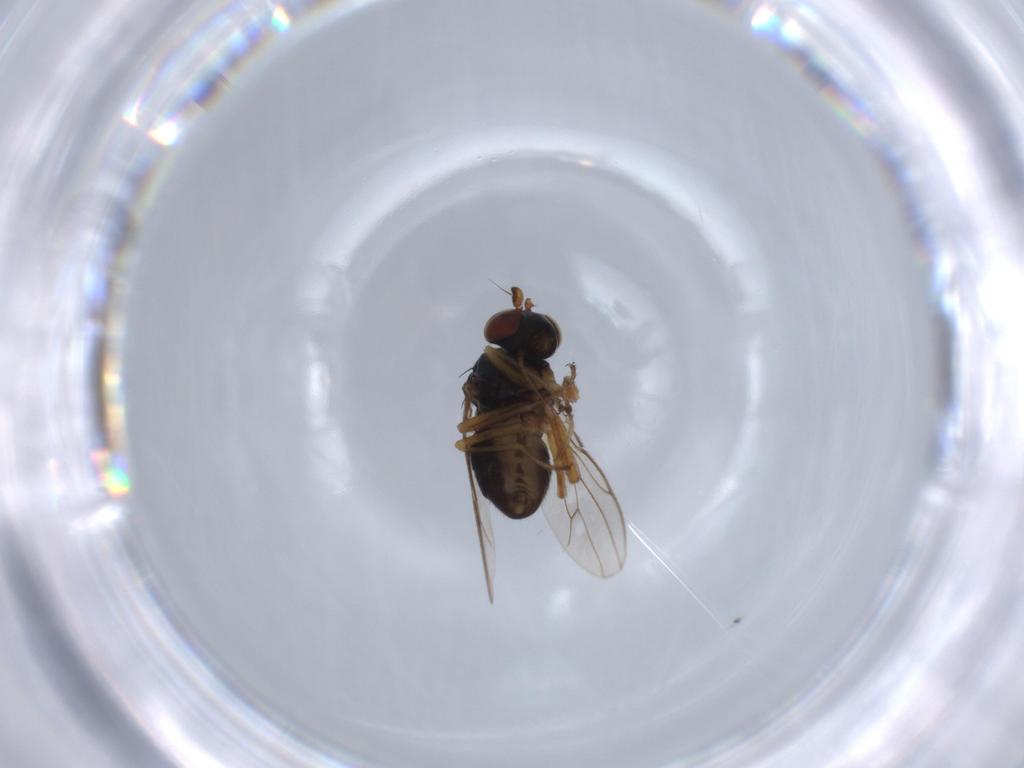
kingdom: Animalia
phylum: Arthropoda
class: Insecta
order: Diptera
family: Ephydridae
